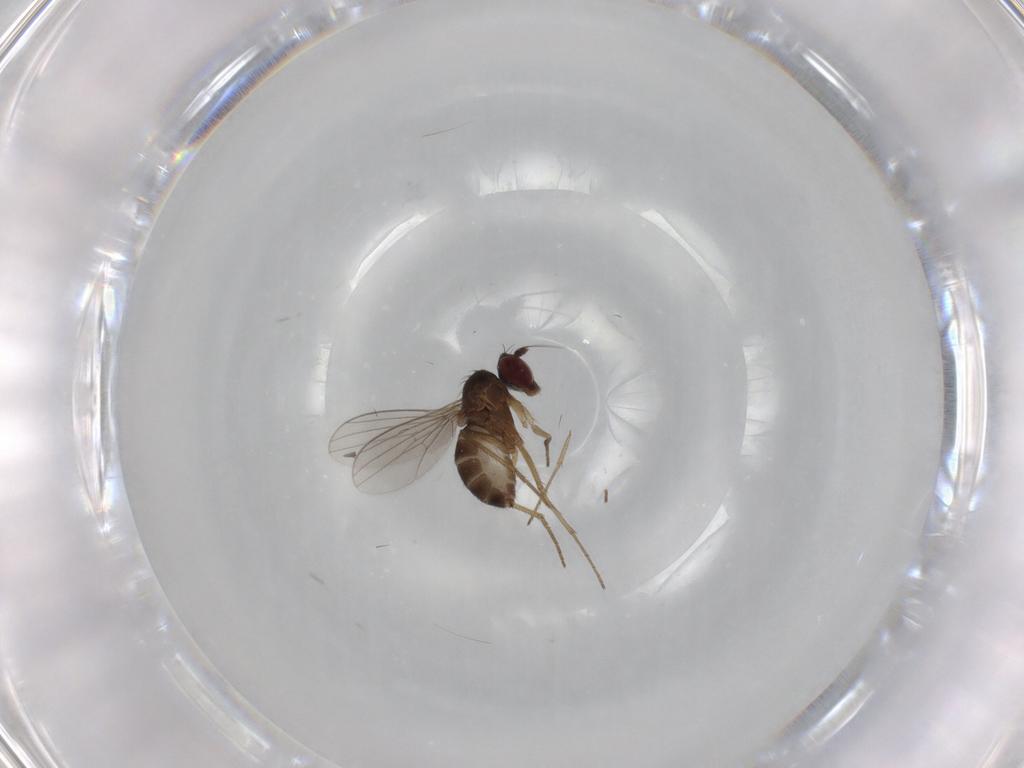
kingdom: Animalia
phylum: Arthropoda
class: Insecta
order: Diptera
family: Dolichopodidae
